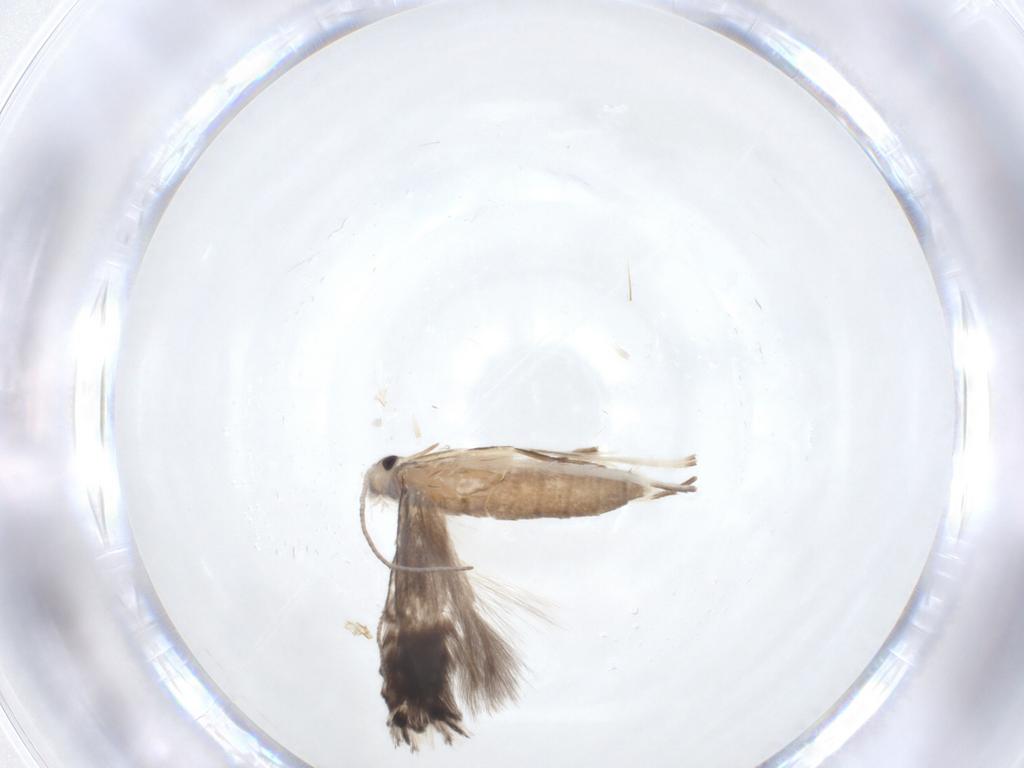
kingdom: Animalia
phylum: Arthropoda
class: Insecta
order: Lepidoptera
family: Gracillariidae
